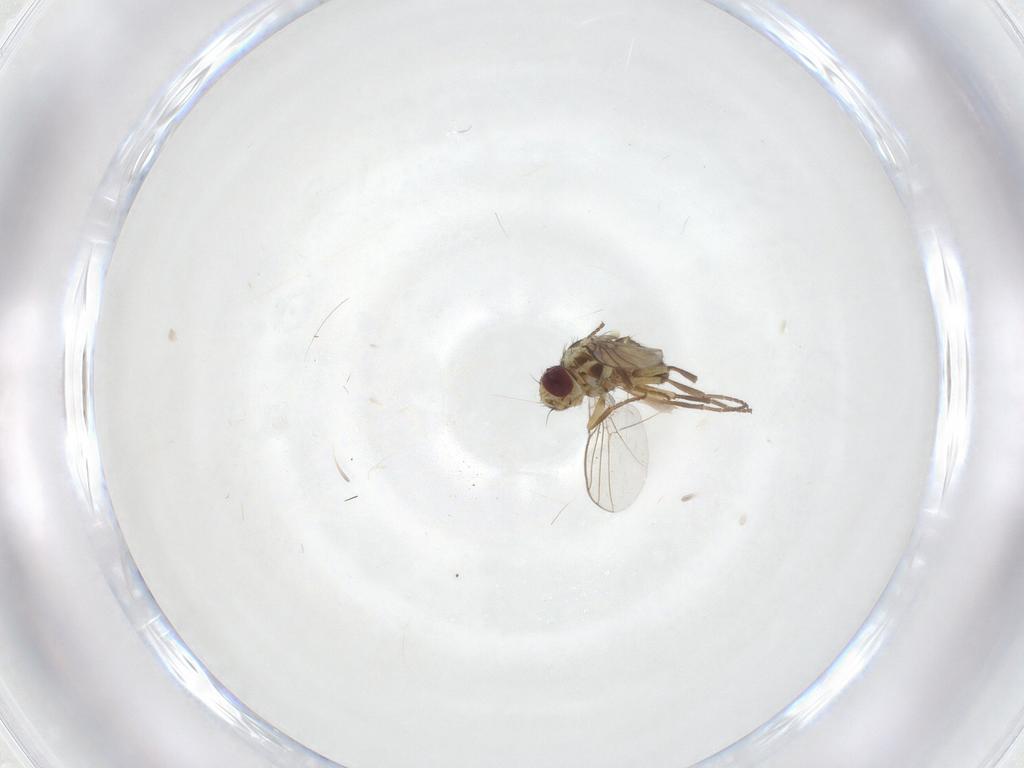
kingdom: Animalia
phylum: Arthropoda
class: Insecta
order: Diptera
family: Agromyzidae
